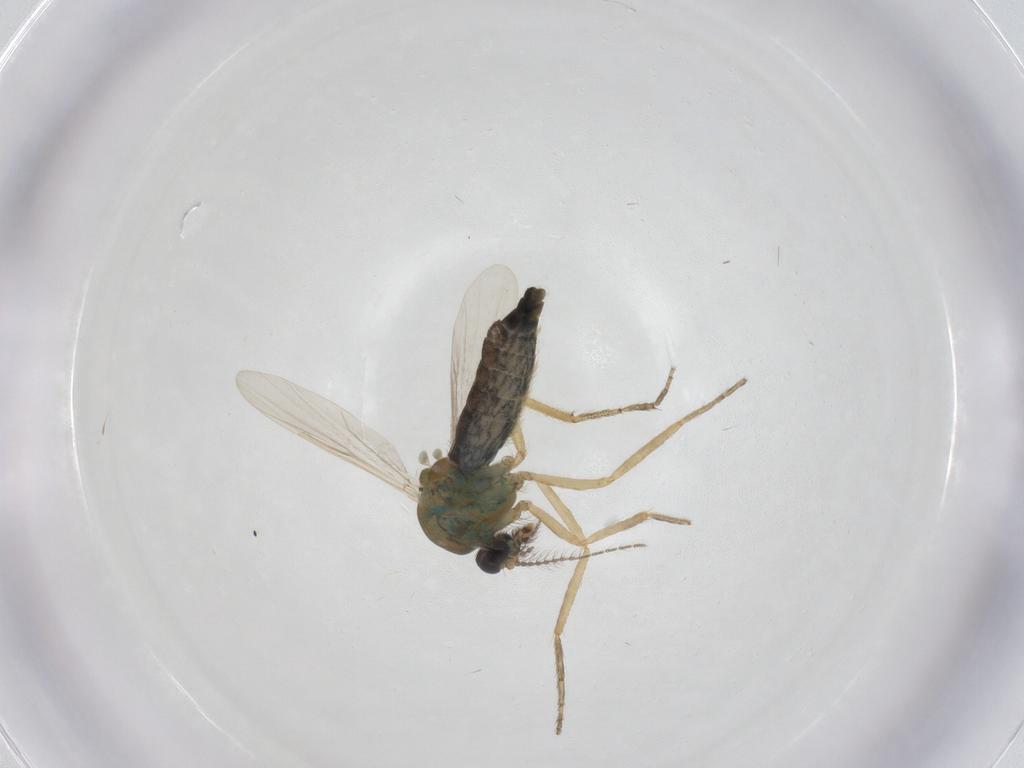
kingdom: Animalia
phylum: Arthropoda
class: Insecta
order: Diptera
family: Ceratopogonidae
